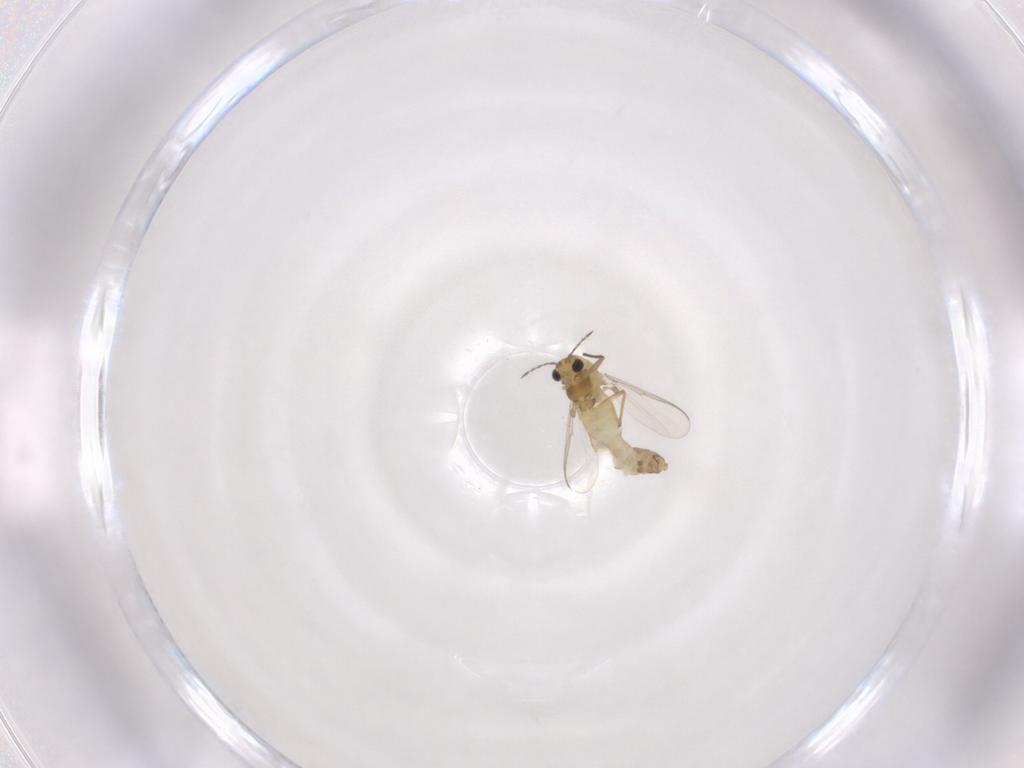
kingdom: Animalia
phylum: Arthropoda
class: Insecta
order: Diptera
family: Chironomidae
